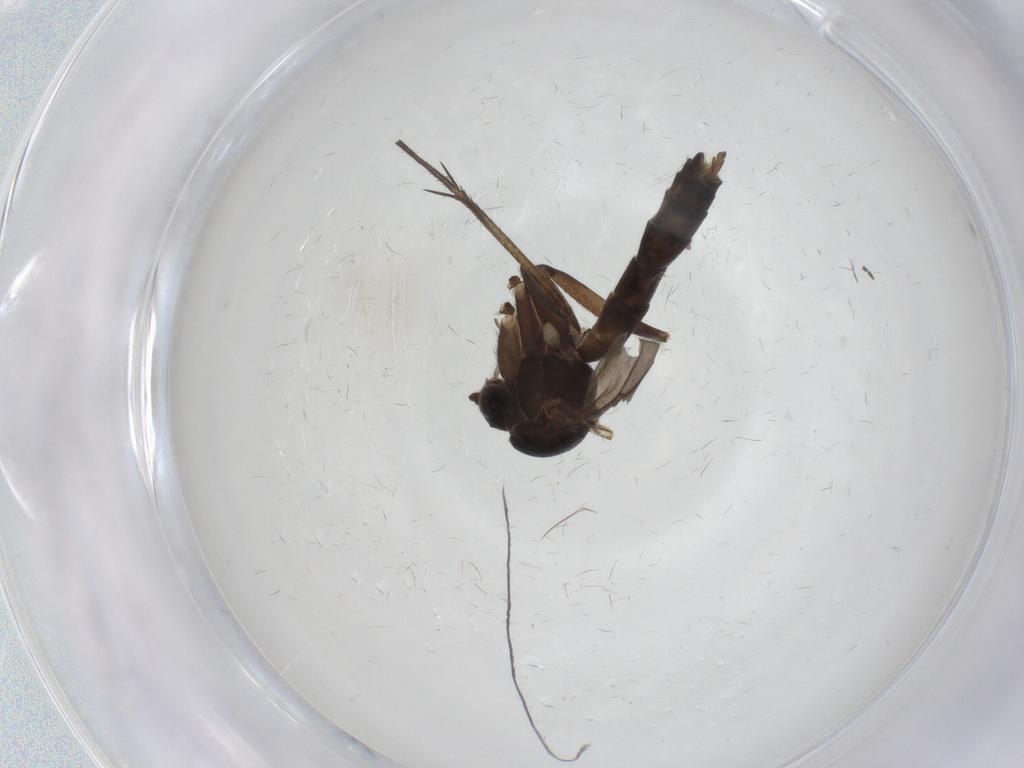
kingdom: Animalia
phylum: Arthropoda
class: Insecta
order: Diptera
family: Mycetophilidae
